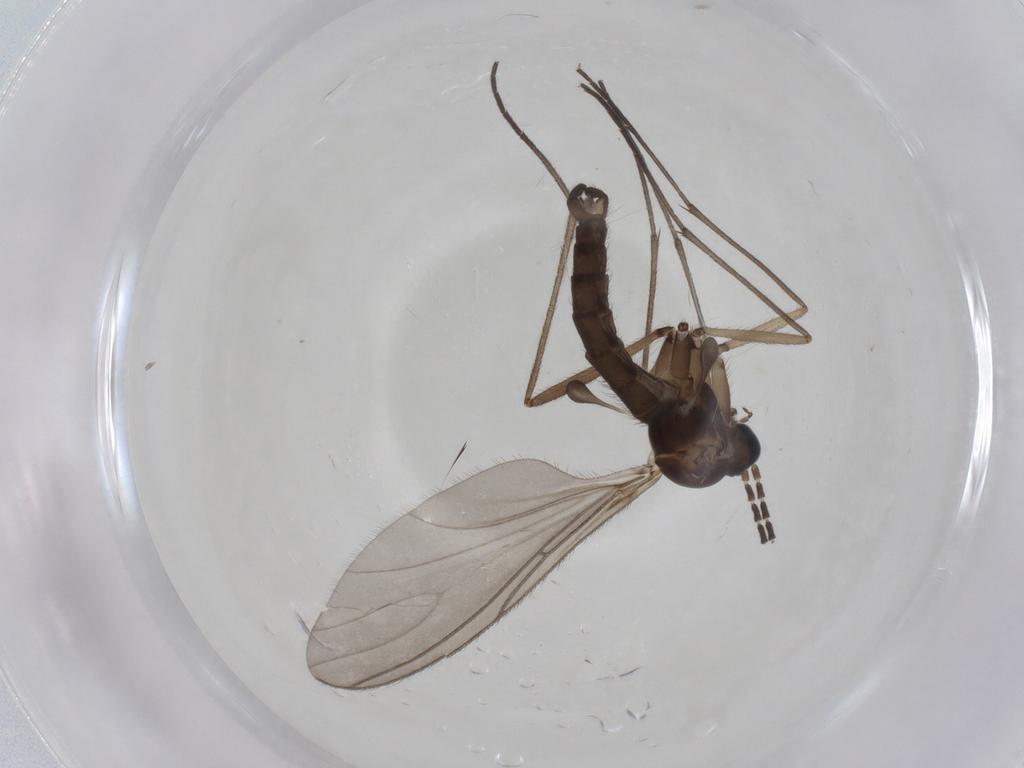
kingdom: Animalia
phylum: Arthropoda
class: Insecta
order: Diptera
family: Sciaridae
